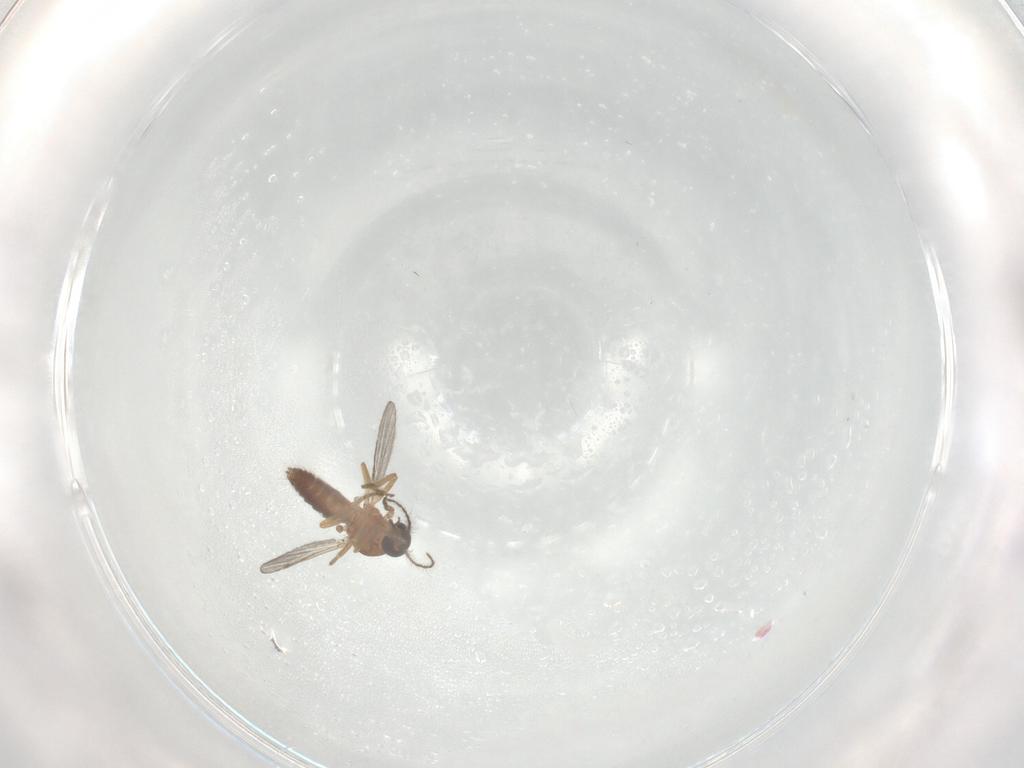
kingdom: Animalia
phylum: Arthropoda
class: Insecta
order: Diptera
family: Ceratopogonidae
